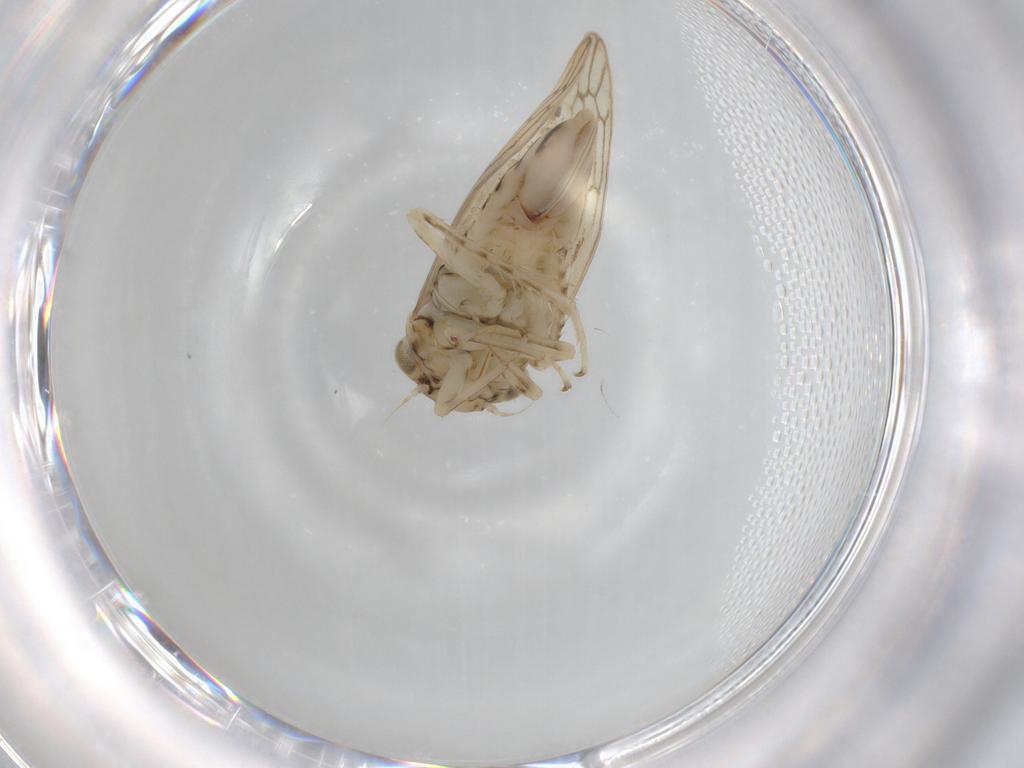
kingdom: Animalia
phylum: Arthropoda
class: Insecta
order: Hemiptera
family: Cicadellidae
